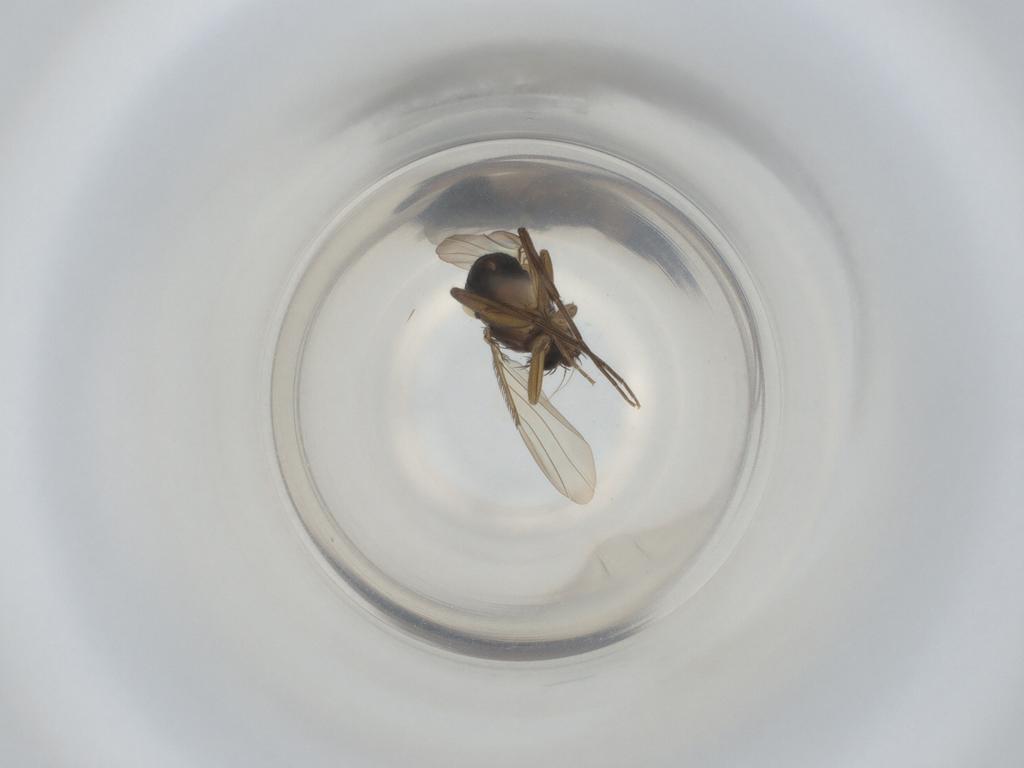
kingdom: Animalia
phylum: Arthropoda
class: Insecta
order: Diptera
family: Phoridae
